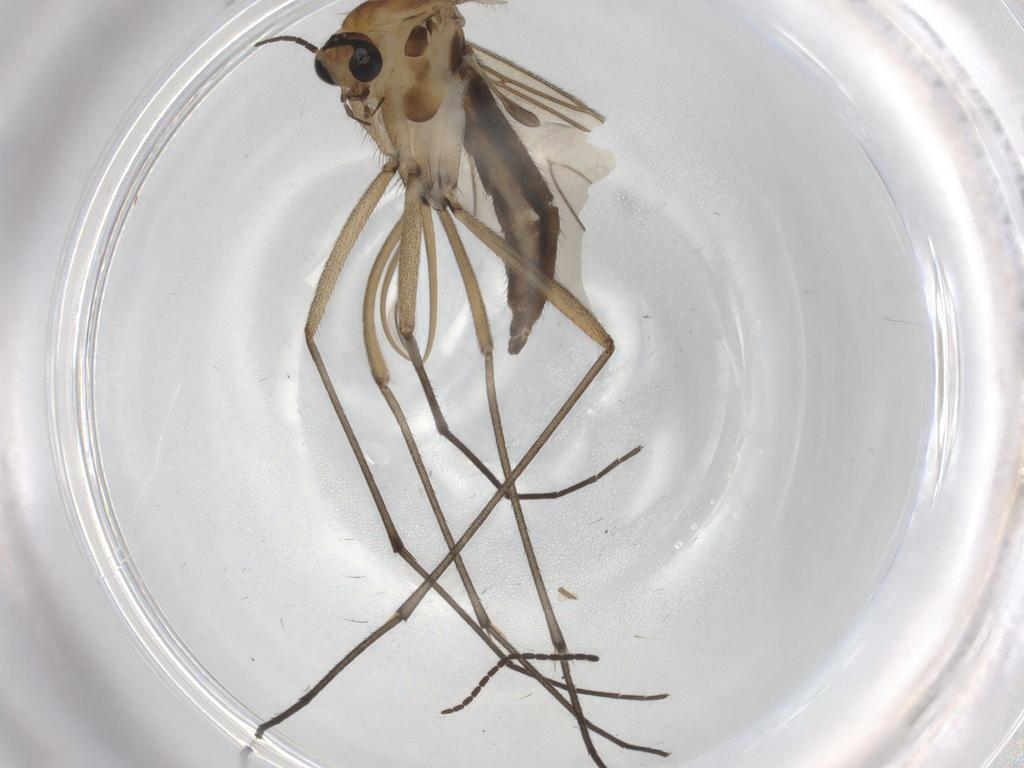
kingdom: Animalia
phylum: Arthropoda
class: Insecta
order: Diptera
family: Sciaridae
